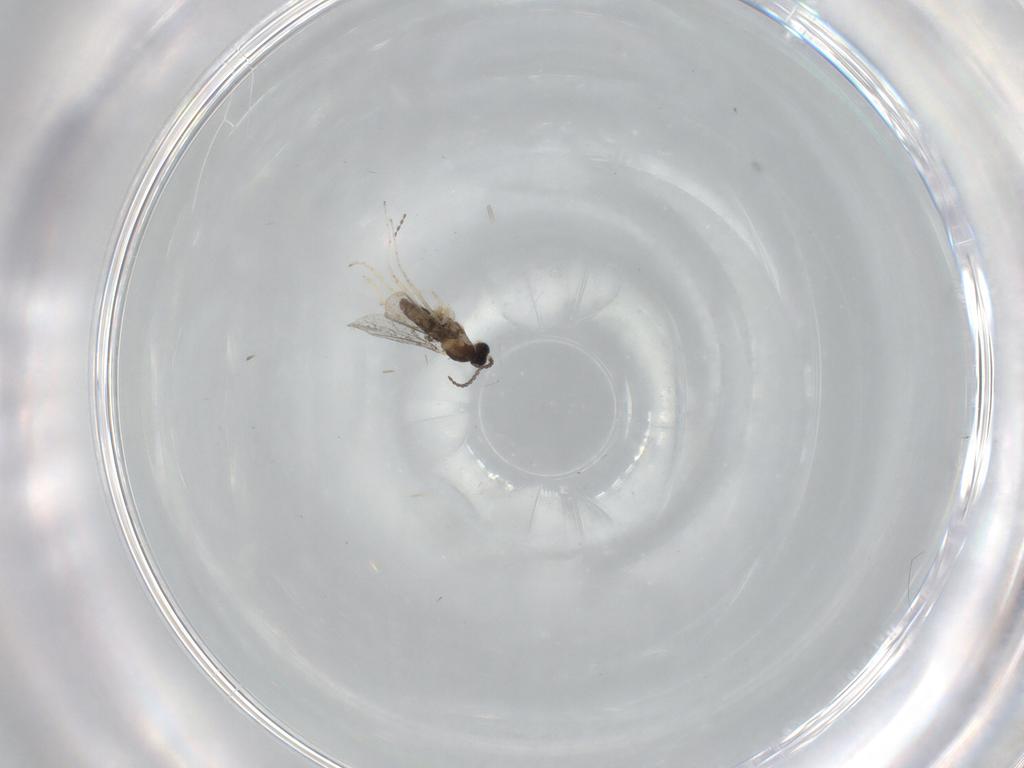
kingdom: Animalia
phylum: Arthropoda
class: Insecta
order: Diptera
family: Cecidomyiidae
